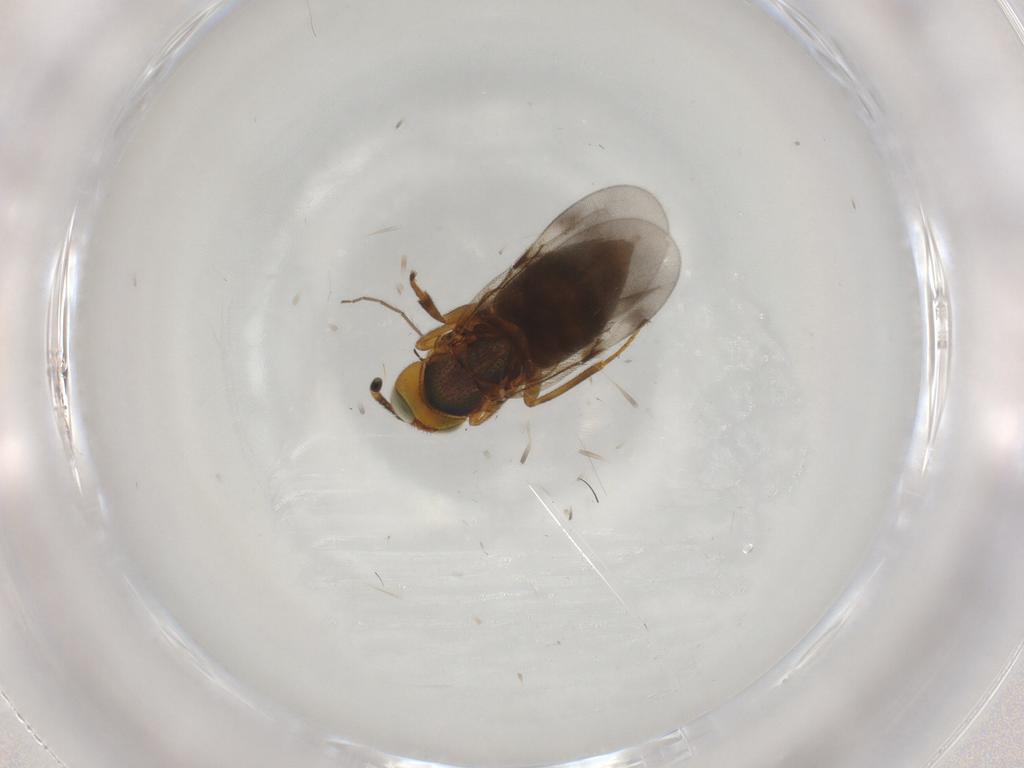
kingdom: Animalia
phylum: Arthropoda
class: Insecta
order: Hymenoptera
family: Encyrtidae
